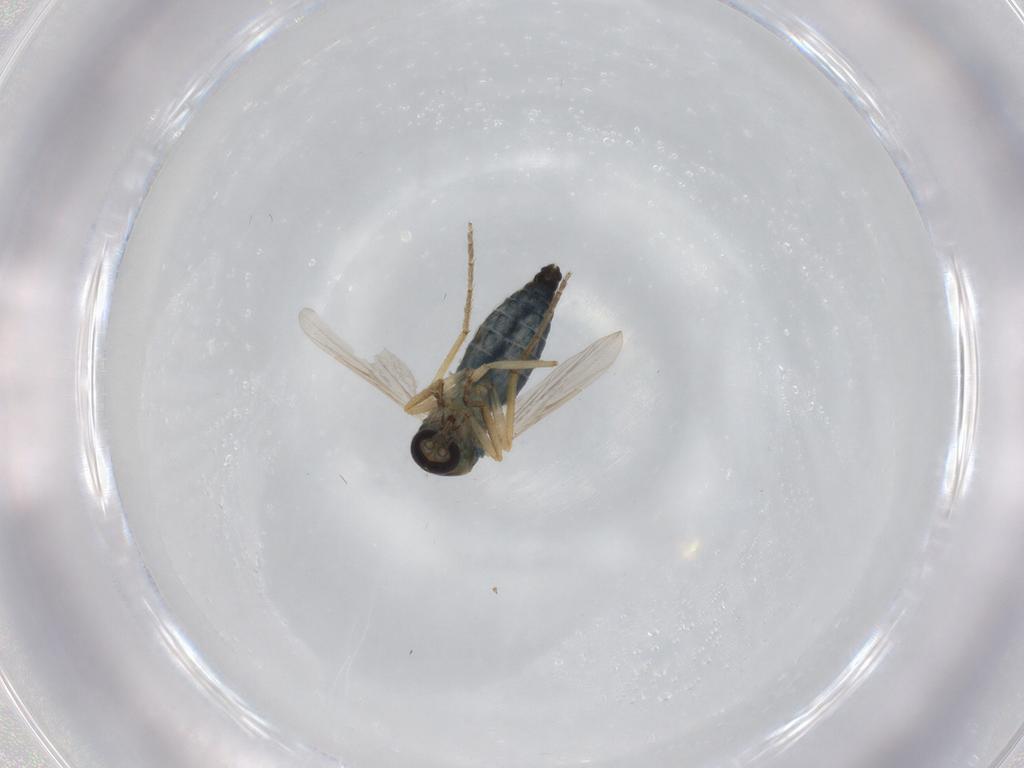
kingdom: Animalia
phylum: Arthropoda
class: Insecta
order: Diptera
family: Ceratopogonidae
